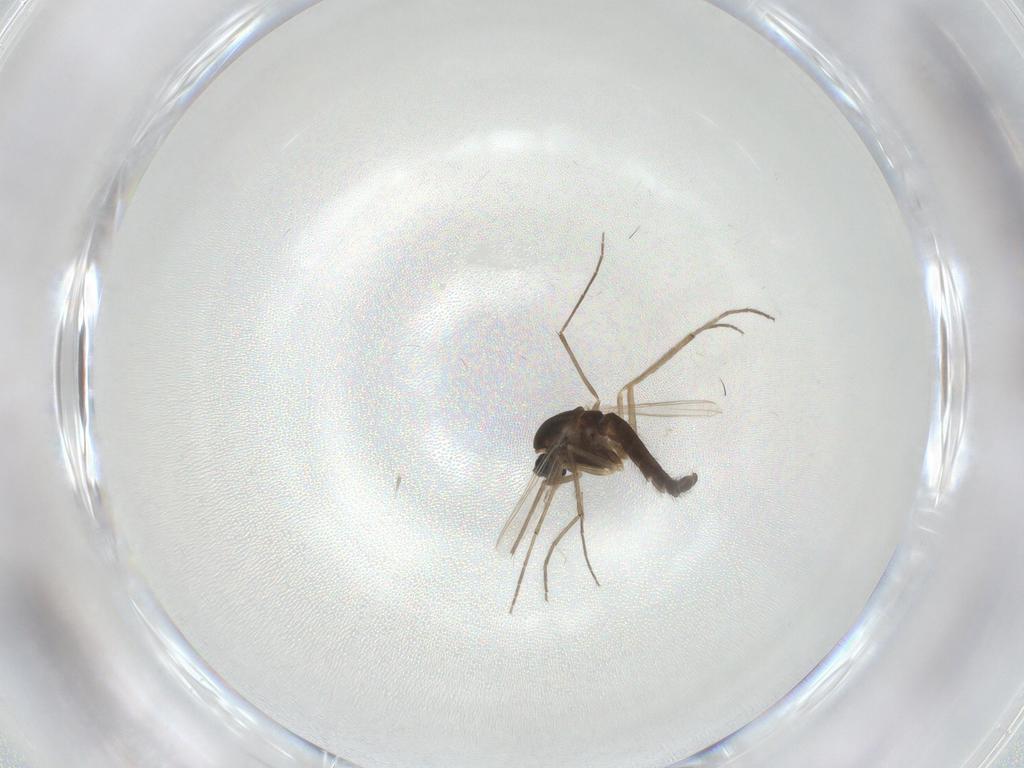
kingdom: Animalia
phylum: Arthropoda
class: Insecta
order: Diptera
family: Chironomidae
